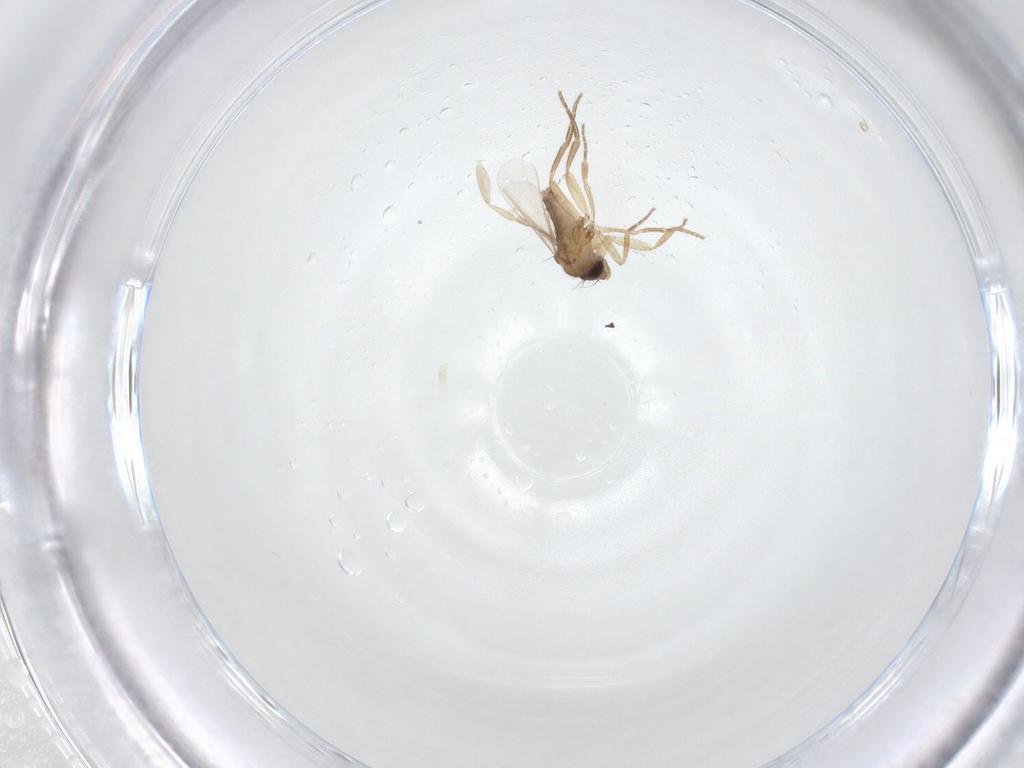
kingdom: Animalia
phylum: Arthropoda
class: Insecta
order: Diptera
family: Phoridae
